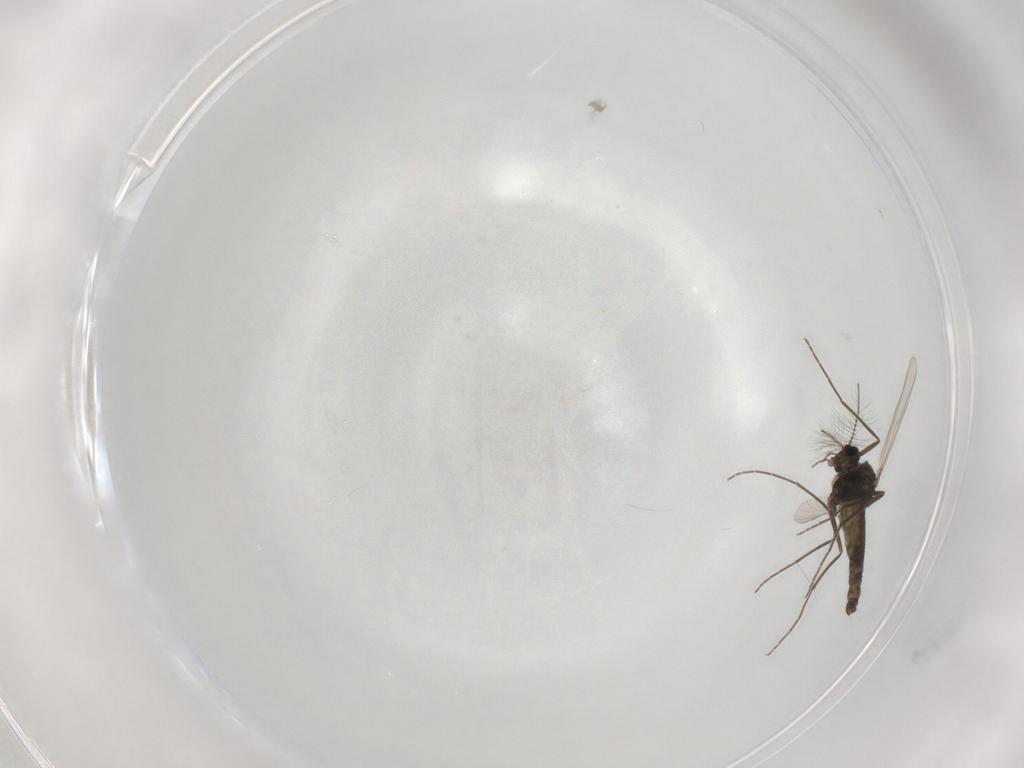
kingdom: Animalia
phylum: Arthropoda
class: Insecta
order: Diptera
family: Chironomidae
